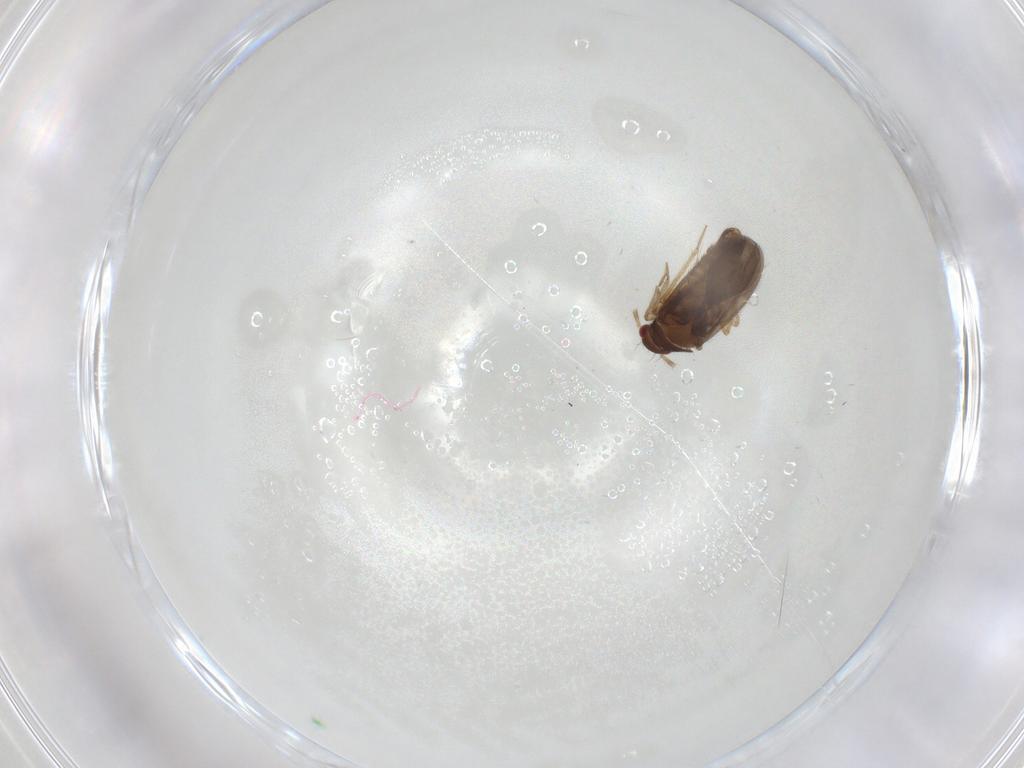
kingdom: Animalia
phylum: Arthropoda
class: Insecta
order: Hemiptera
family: Ceratocombidae
